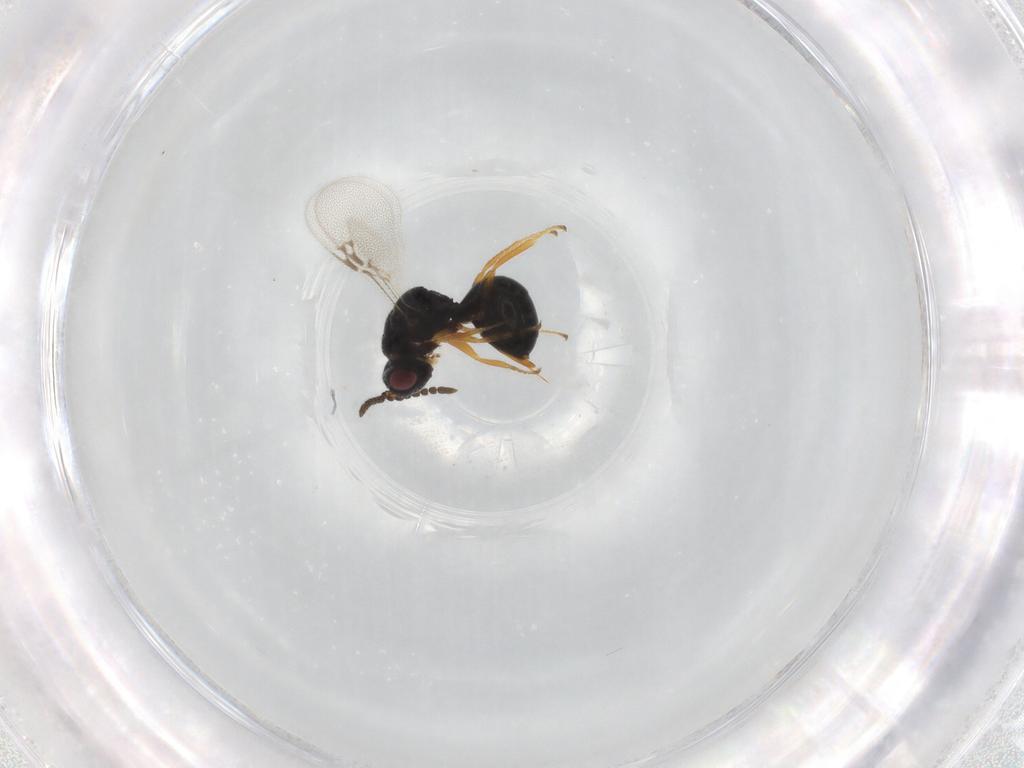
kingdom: Animalia
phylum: Arthropoda
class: Insecta
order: Hymenoptera
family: Eurytomidae
